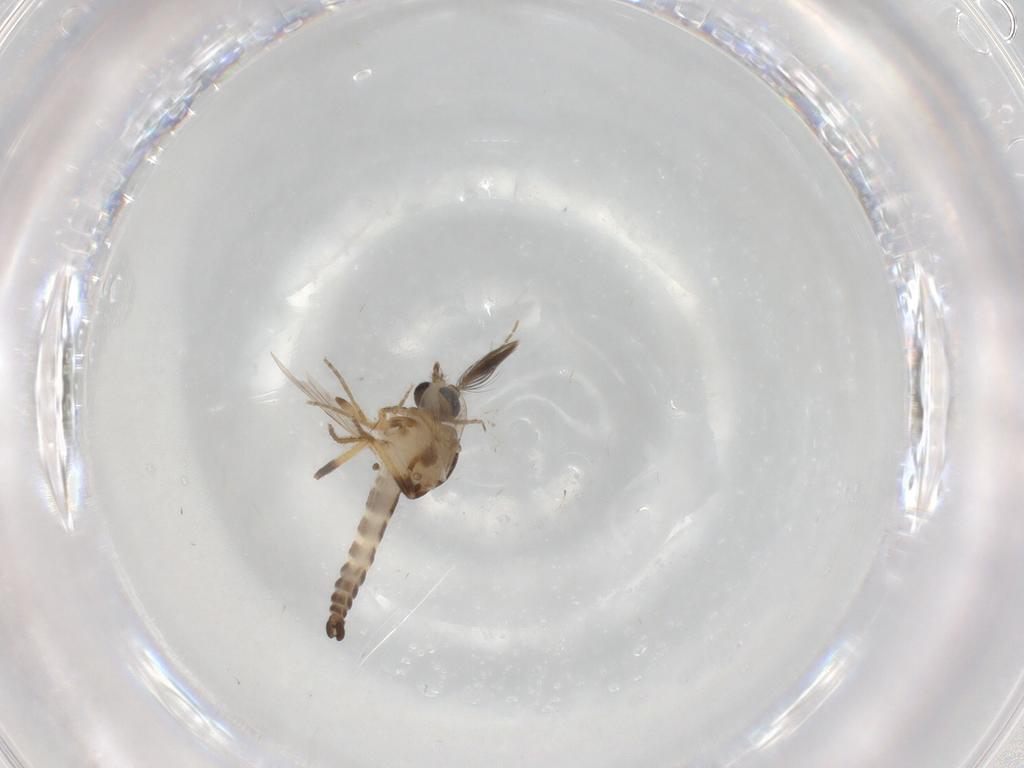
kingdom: Animalia
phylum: Arthropoda
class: Insecta
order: Diptera
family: Ceratopogonidae
